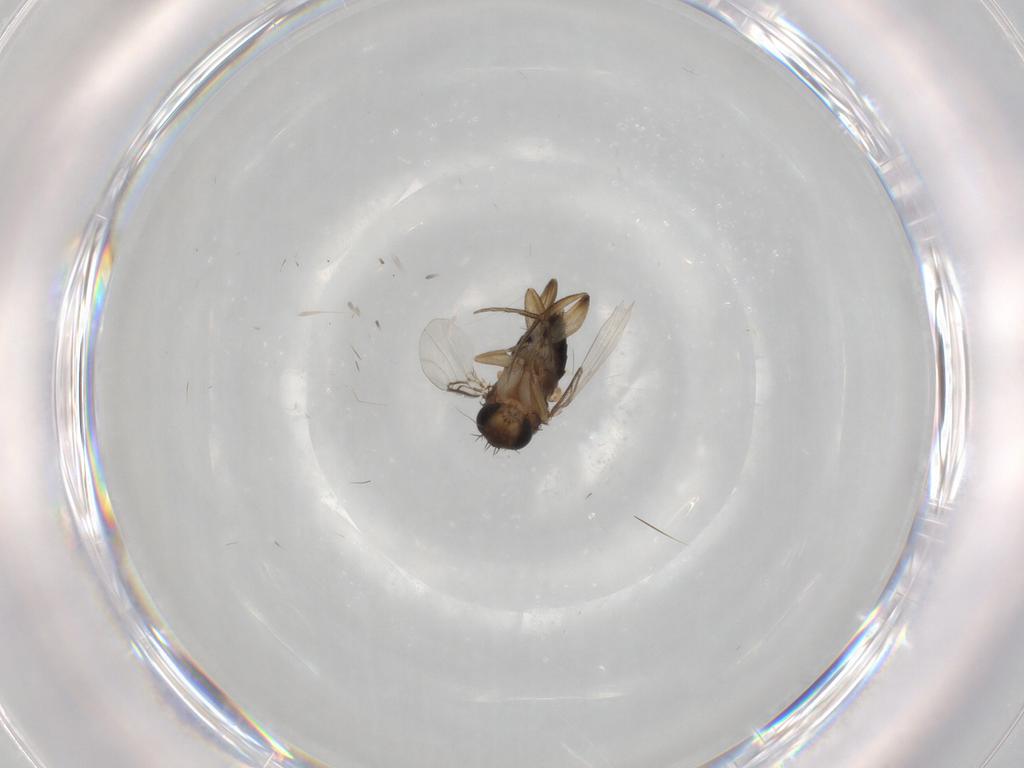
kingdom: Animalia
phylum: Arthropoda
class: Insecta
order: Diptera
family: Phoridae
